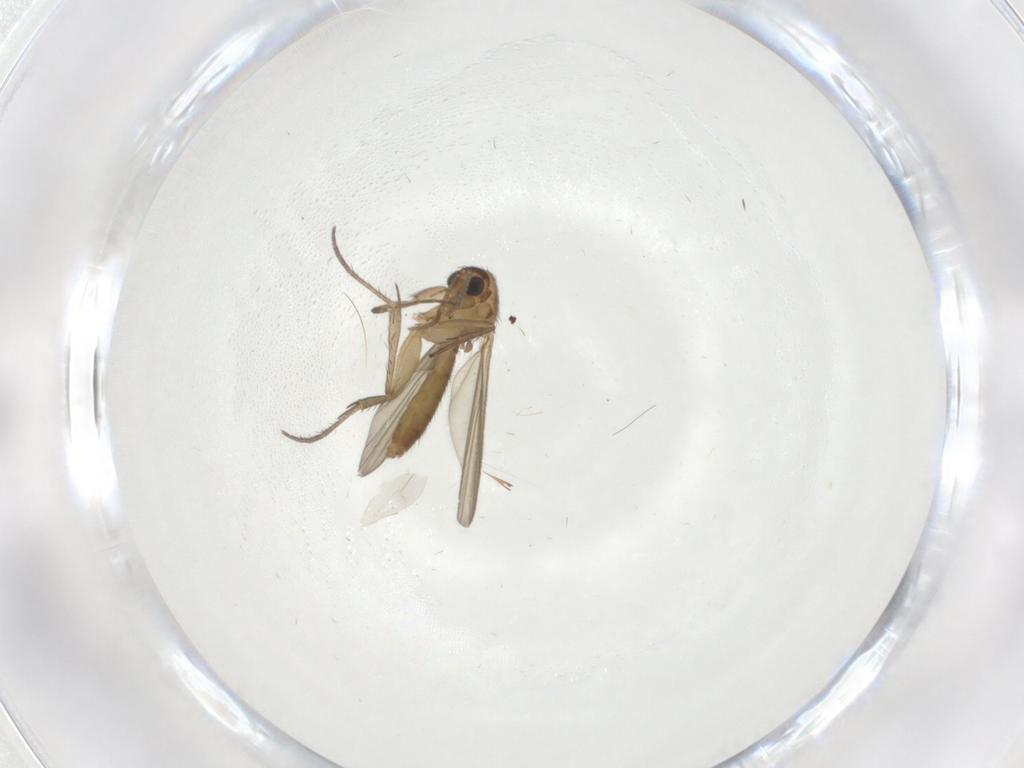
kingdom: Animalia
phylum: Arthropoda
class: Insecta
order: Diptera
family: Mycetophilidae
